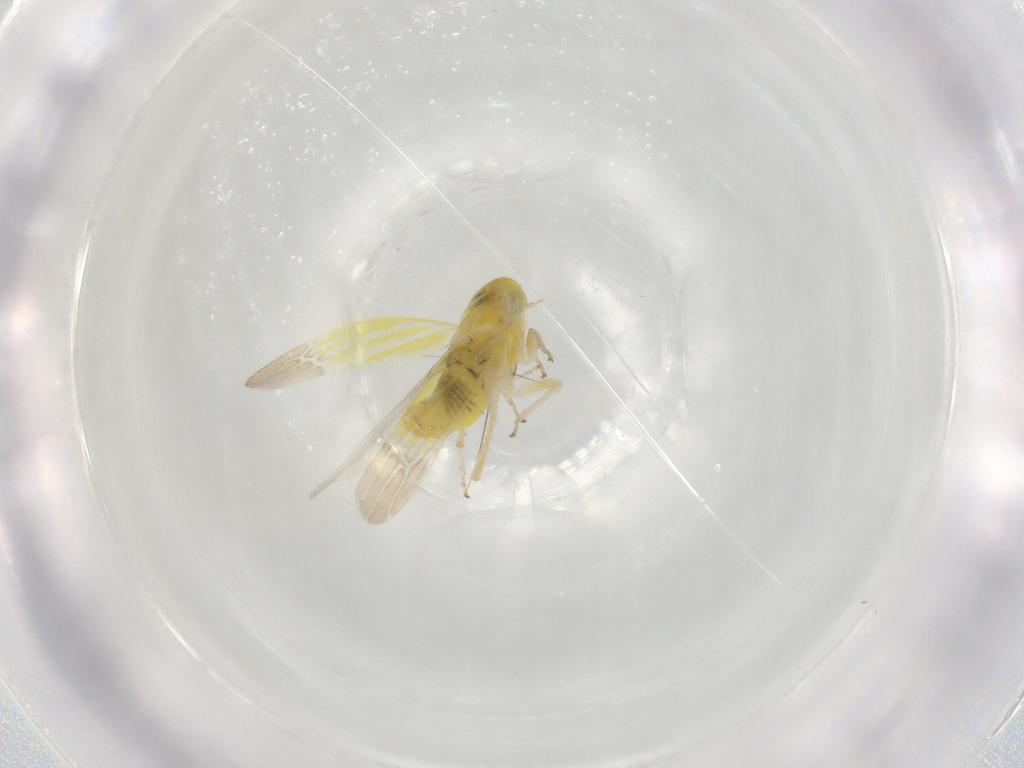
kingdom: Animalia
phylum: Arthropoda
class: Insecta
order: Hemiptera
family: Cicadellidae
